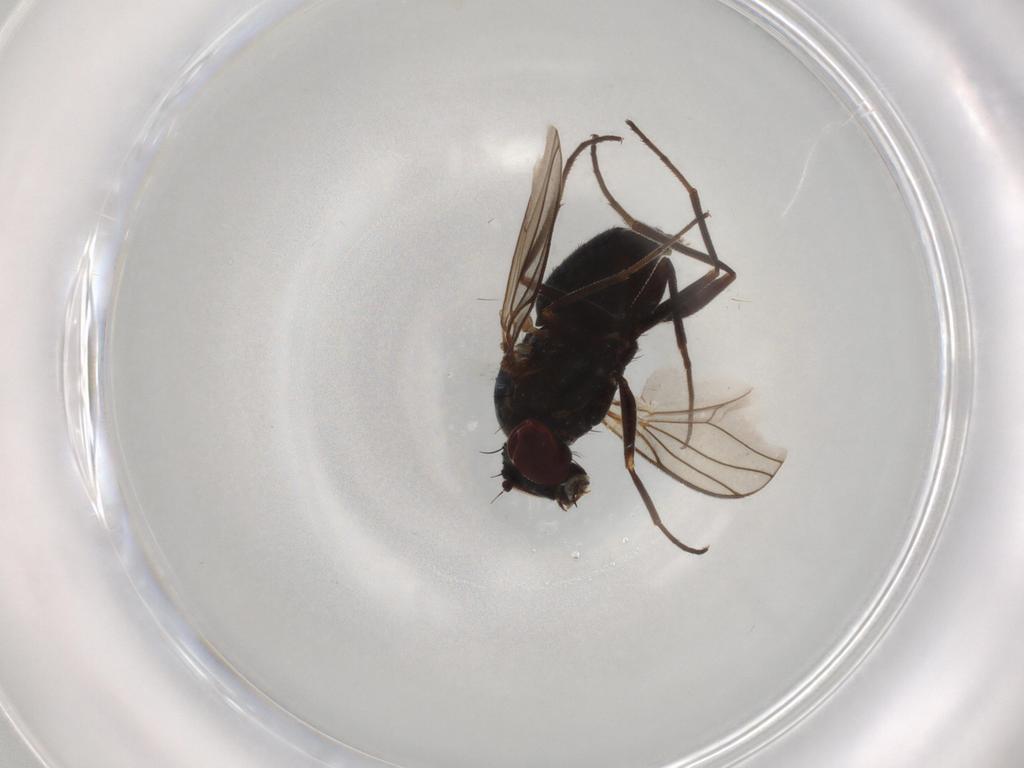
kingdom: Animalia
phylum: Arthropoda
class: Insecta
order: Diptera
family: Dolichopodidae
